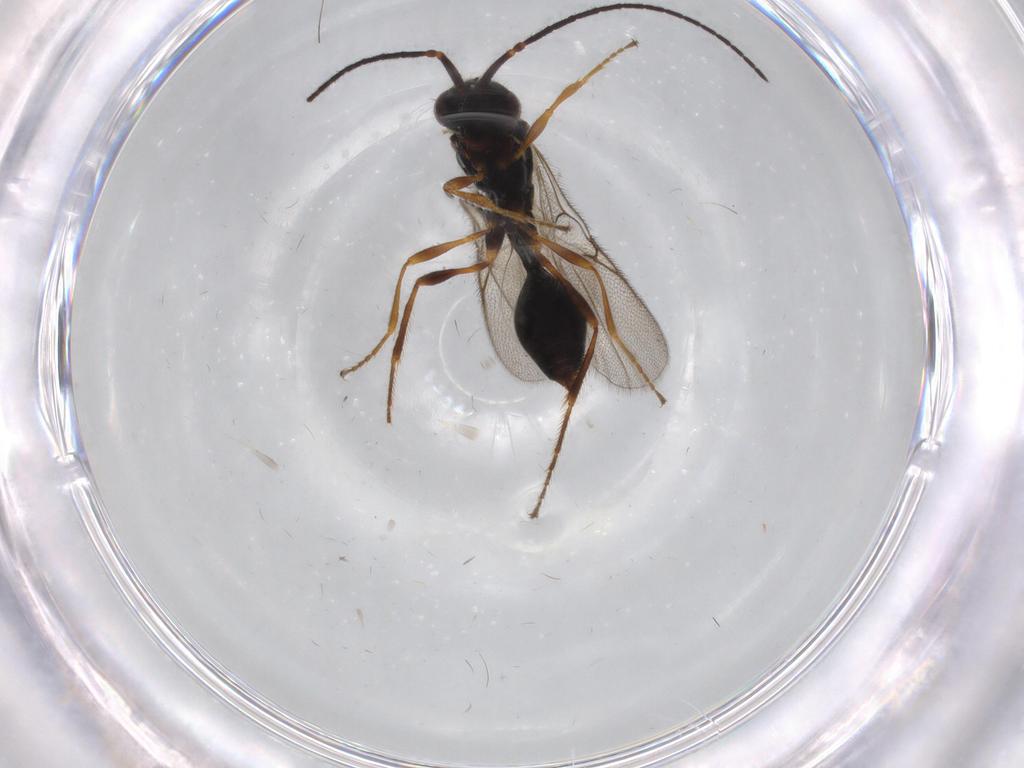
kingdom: Animalia
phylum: Arthropoda
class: Insecta
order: Hymenoptera
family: Diapriidae
